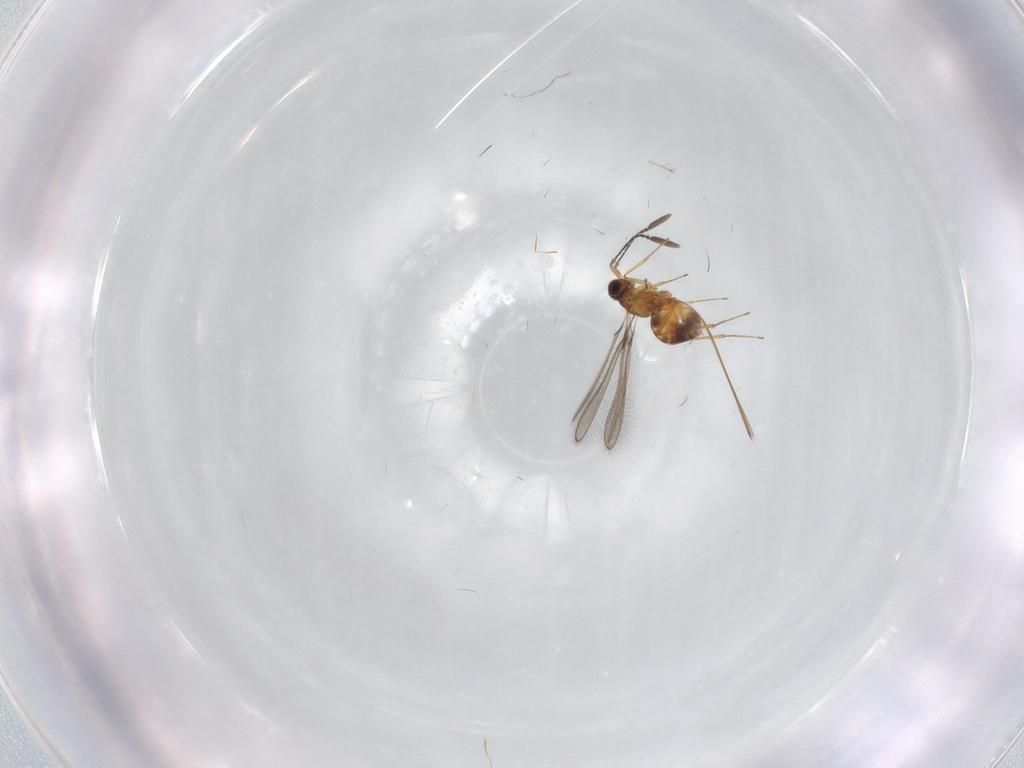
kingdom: Animalia
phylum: Arthropoda
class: Insecta
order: Hymenoptera
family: Mymaridae
